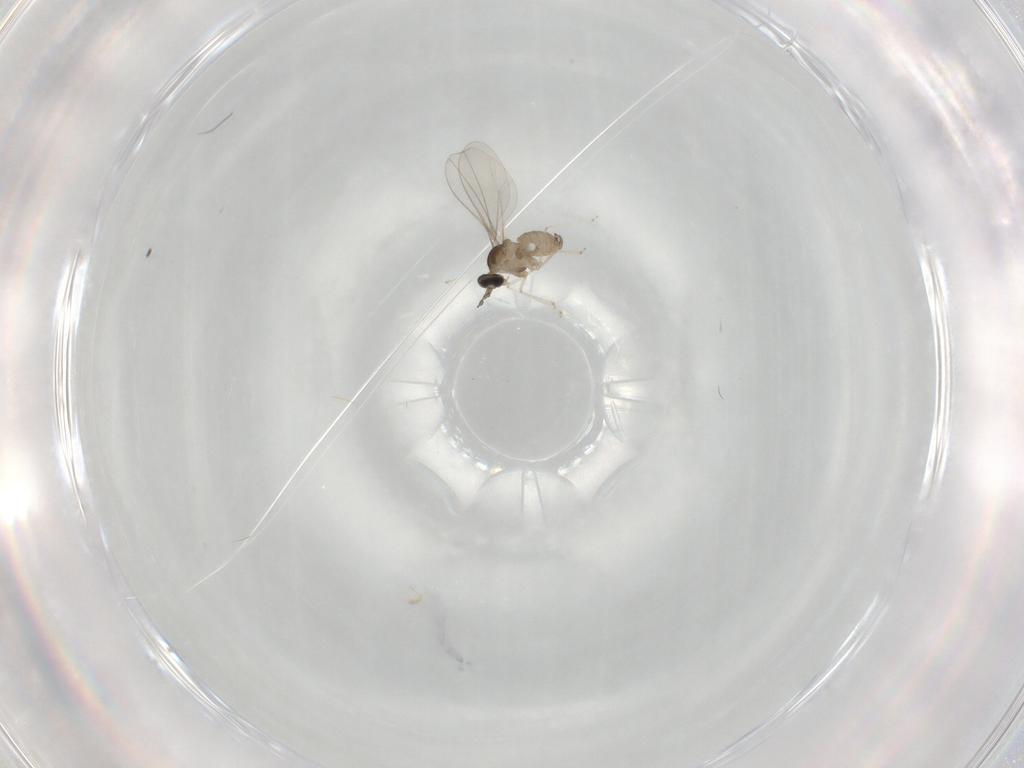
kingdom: Animalia
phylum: Arthropoda
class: Insecta
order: Diptera
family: Cecidomyiidae
